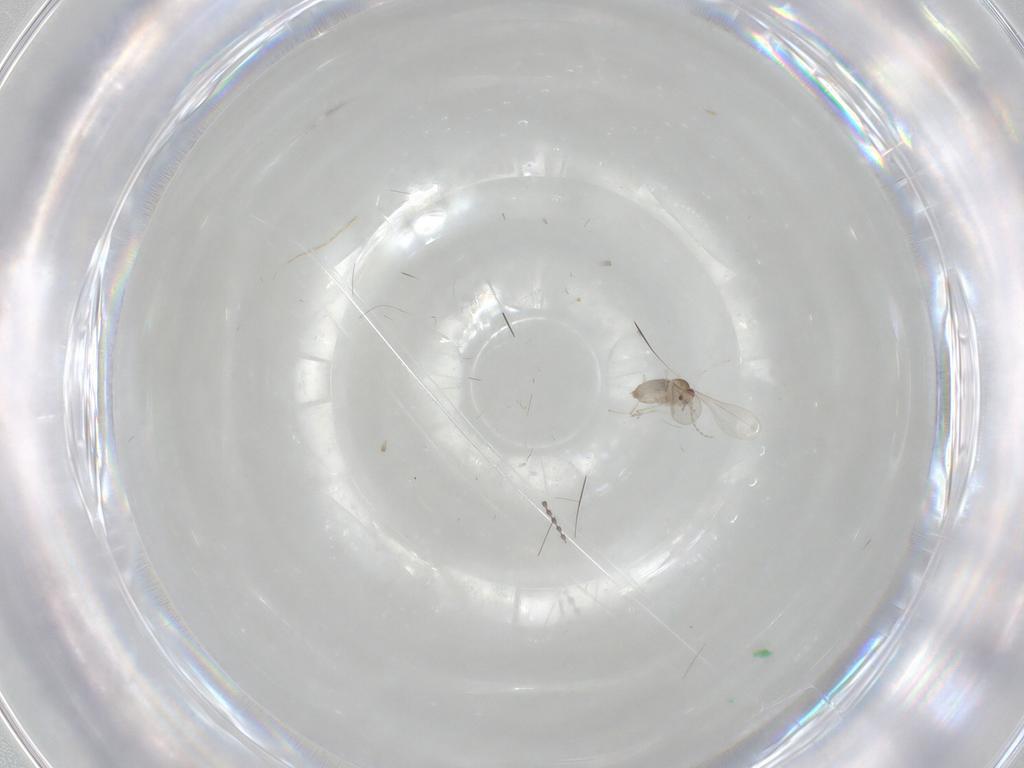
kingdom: Animalia
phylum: Arthropoda
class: Insecta
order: Diptera
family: Cecidomyiidae
